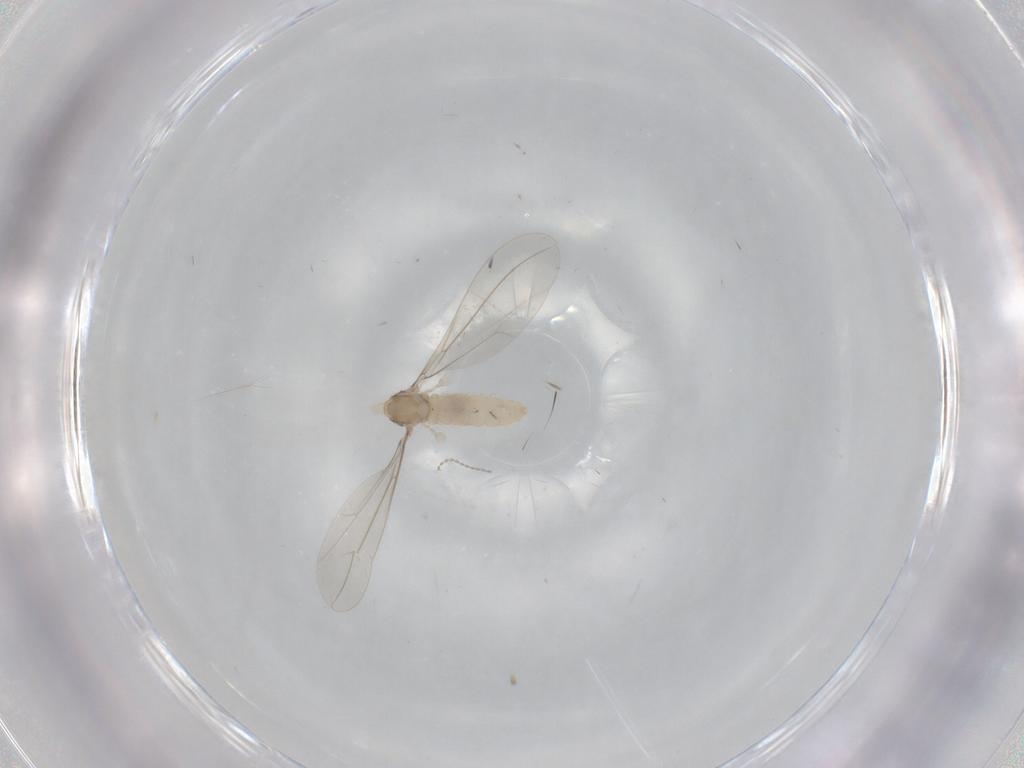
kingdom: Animalia
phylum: Arthropoda
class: Insecta
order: Diptera
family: Cecidomyiidae
